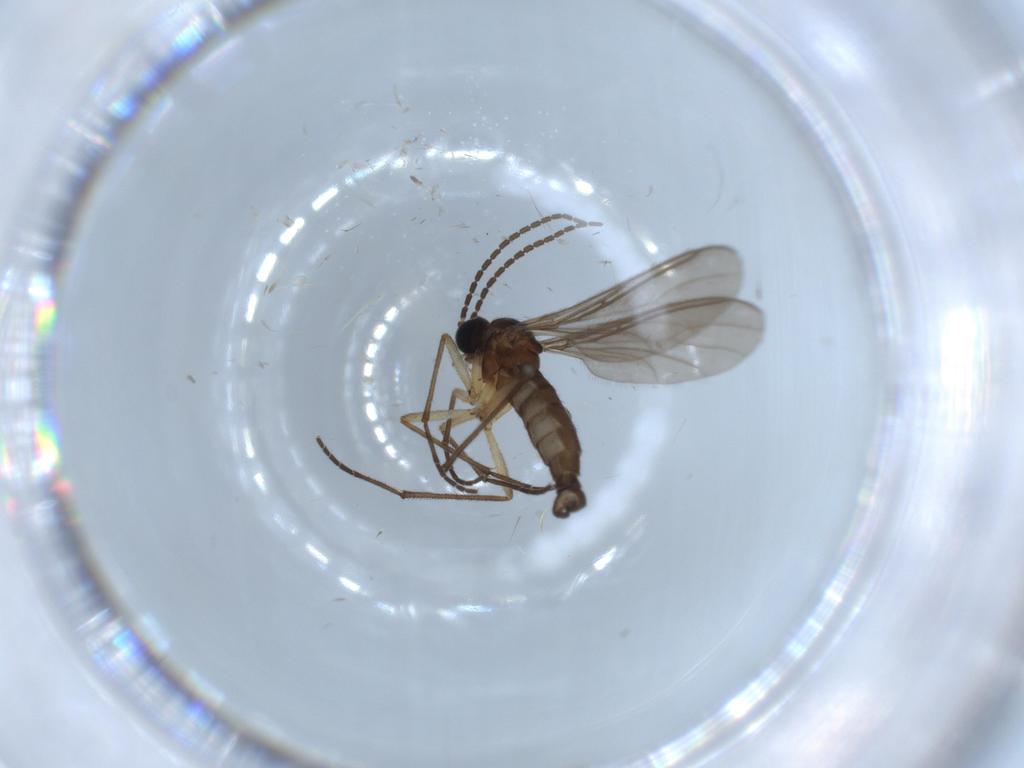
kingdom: Animalia
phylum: Arthropoda
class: Insecta
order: Diptera
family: Sciaridae
